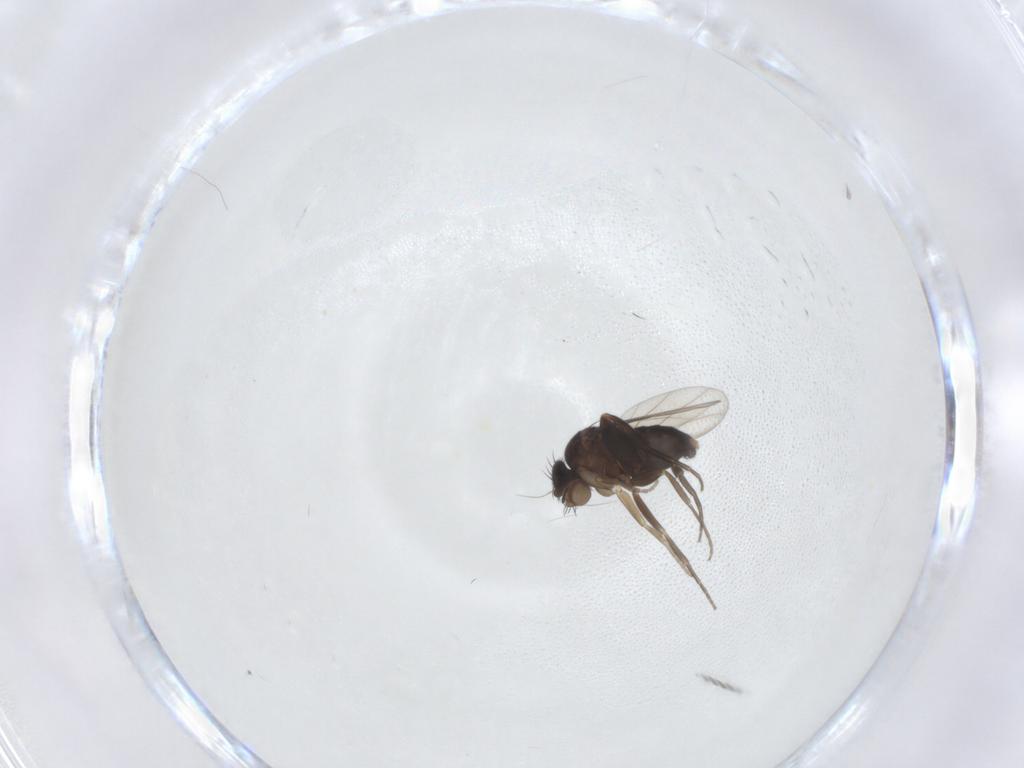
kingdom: Animalia
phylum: Arthropoda
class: Insecta
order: Diptera
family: Phoridae
